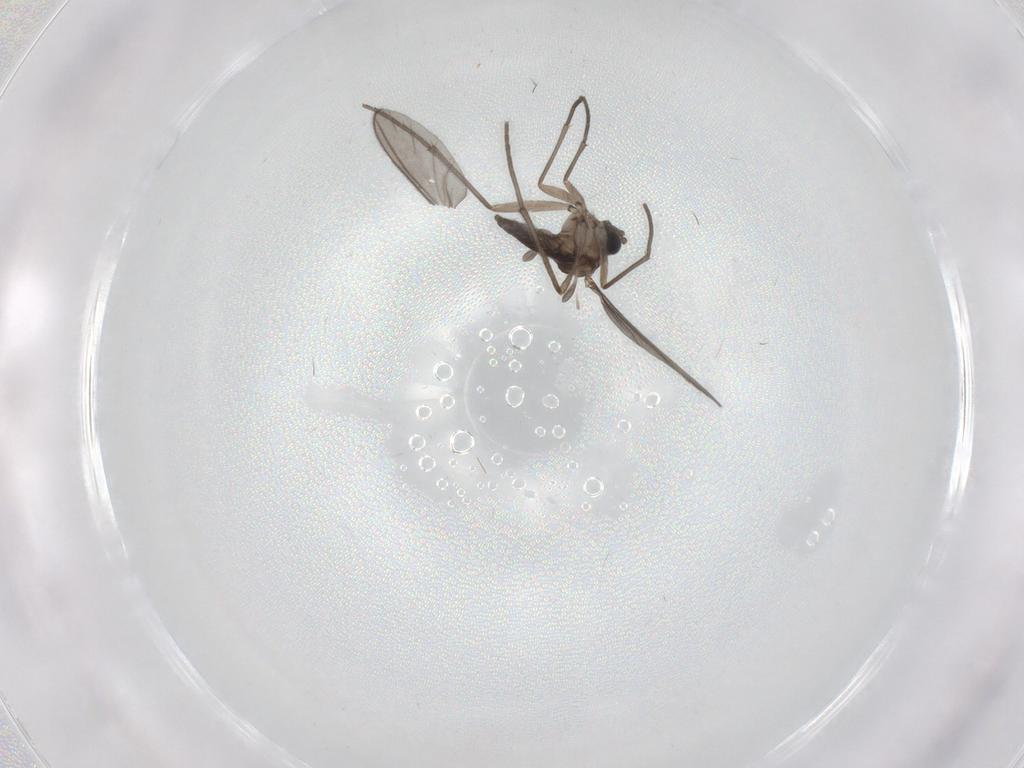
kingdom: Animalia
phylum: Arthropoda
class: Insecta
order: Diptera
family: Sciaridae
